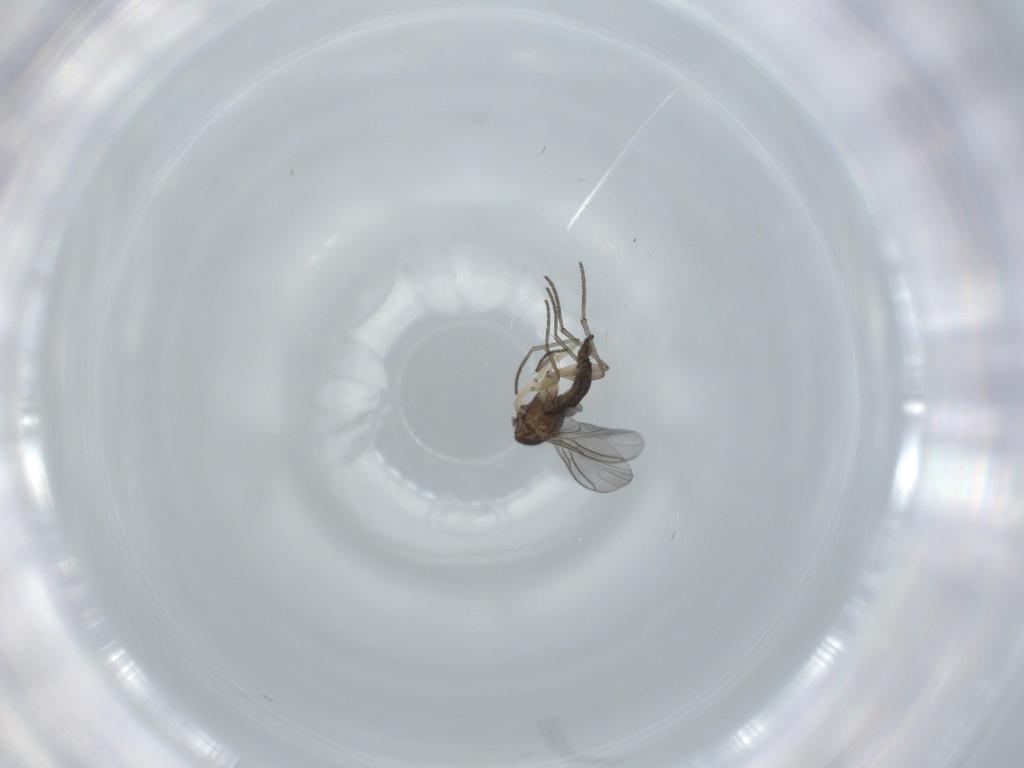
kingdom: Animalia
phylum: Arthropoda
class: Insecta
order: Diptera
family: Sciaridae
